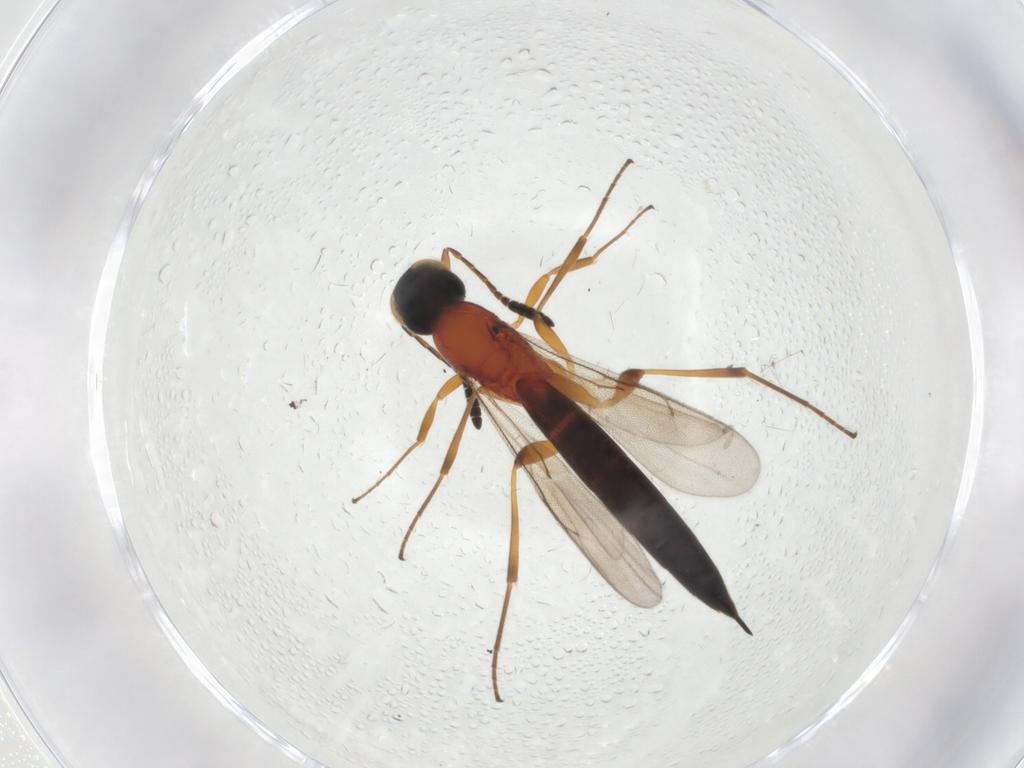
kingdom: Animalia
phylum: Arthropoda
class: Insecta
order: Hymenoptera
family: Scelionidae
